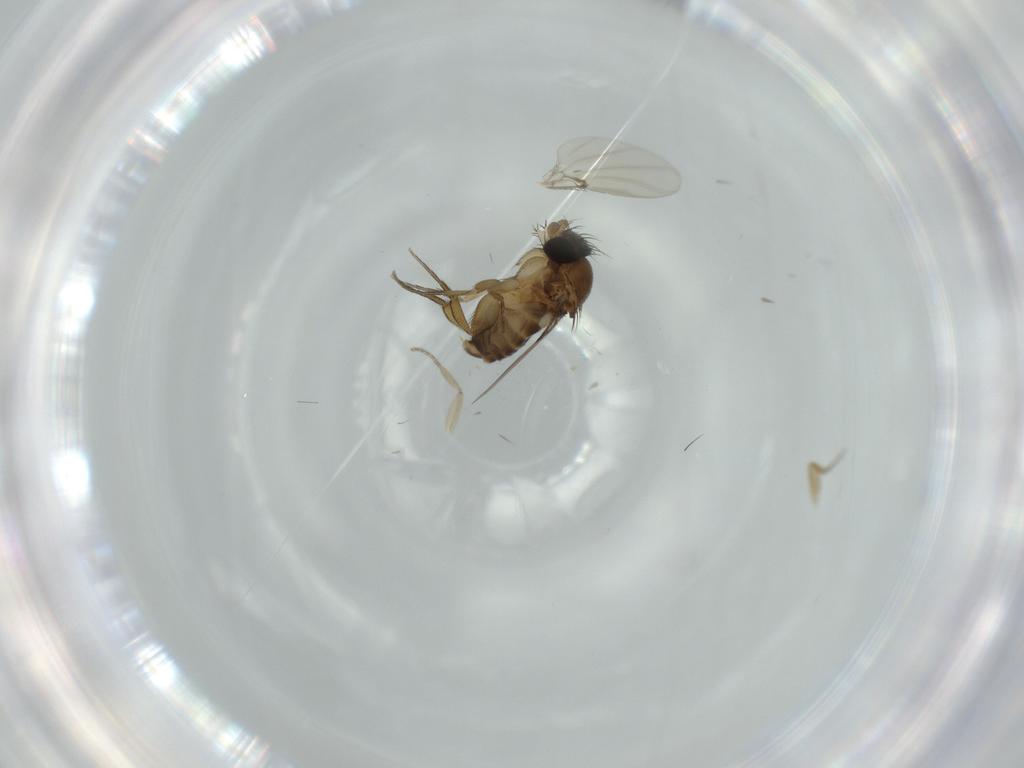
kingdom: Animalia
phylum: Arthropoda
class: Insecta
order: Diptera
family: Phoridae
